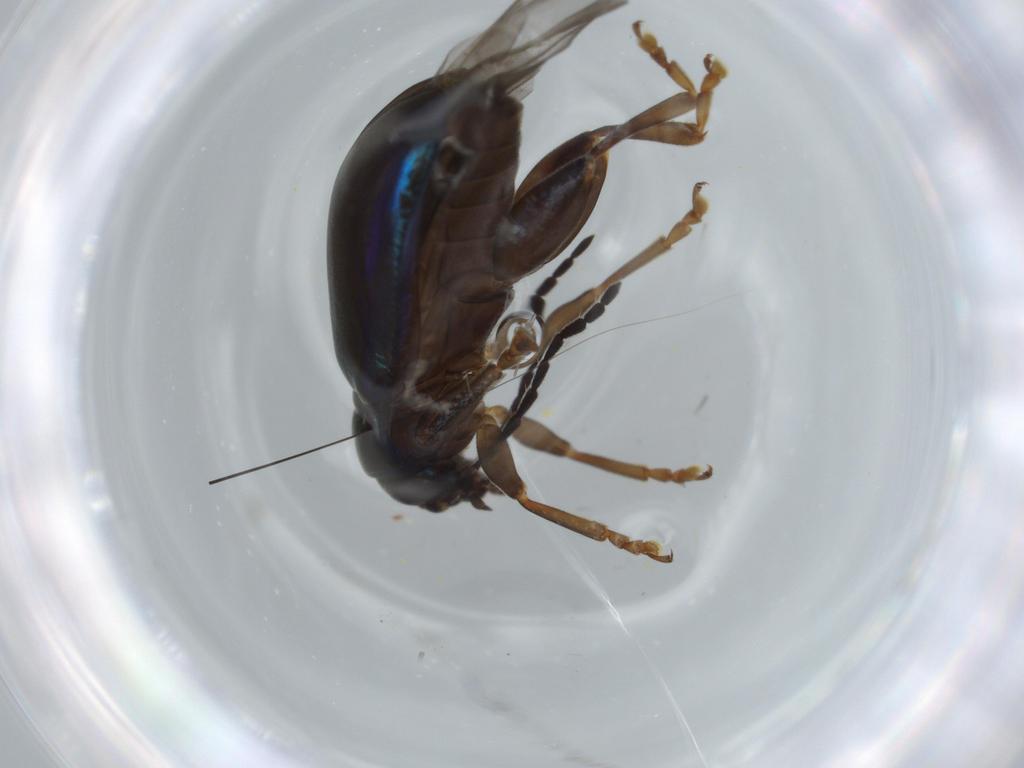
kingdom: Animalia
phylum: Arthropoda
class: Insecta
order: Coleoptera
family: Chrysomelidae
